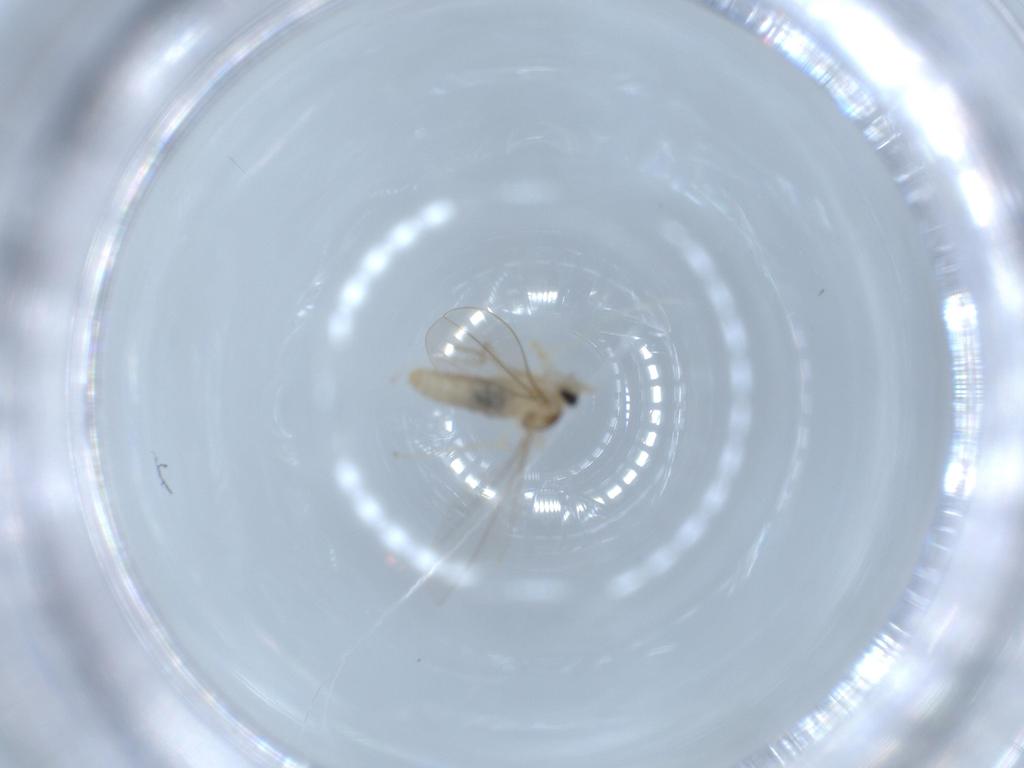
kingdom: Animalia
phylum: Arthropoda
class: Insecta
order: Diptera
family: Cecidomyiidae
